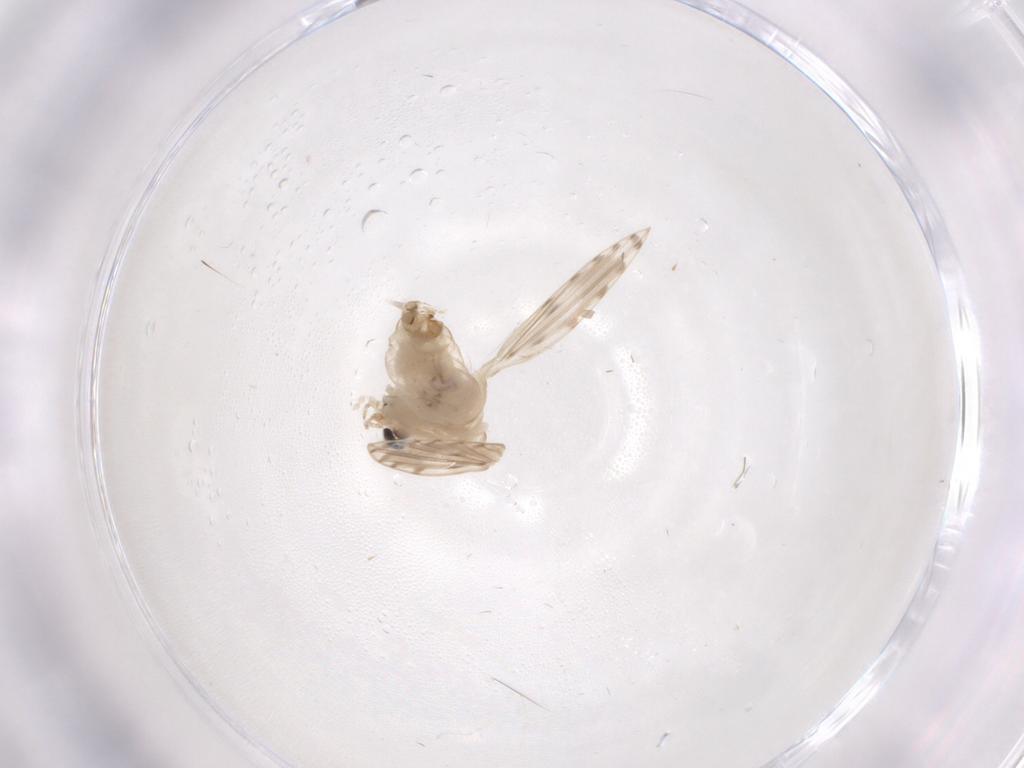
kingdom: Animalia
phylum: Arthropoda
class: Insecta
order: Diptera
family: Psychodidae
